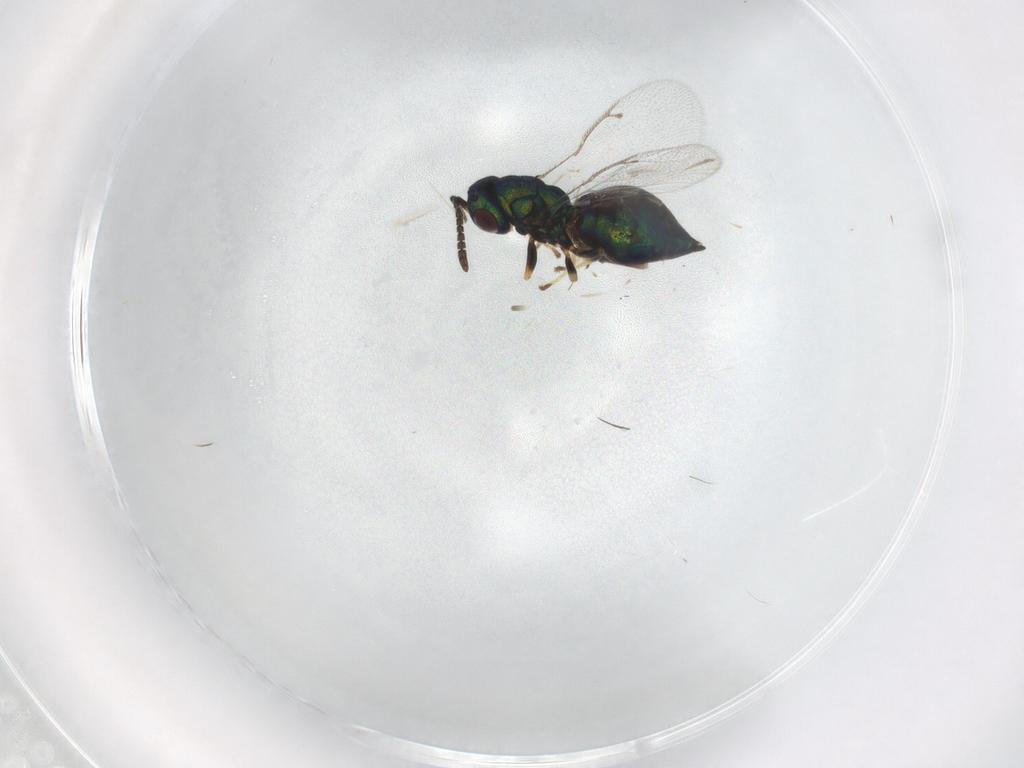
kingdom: Animalia
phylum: Arthropoda
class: Insecta
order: Hymenoptera
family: Formicidae
